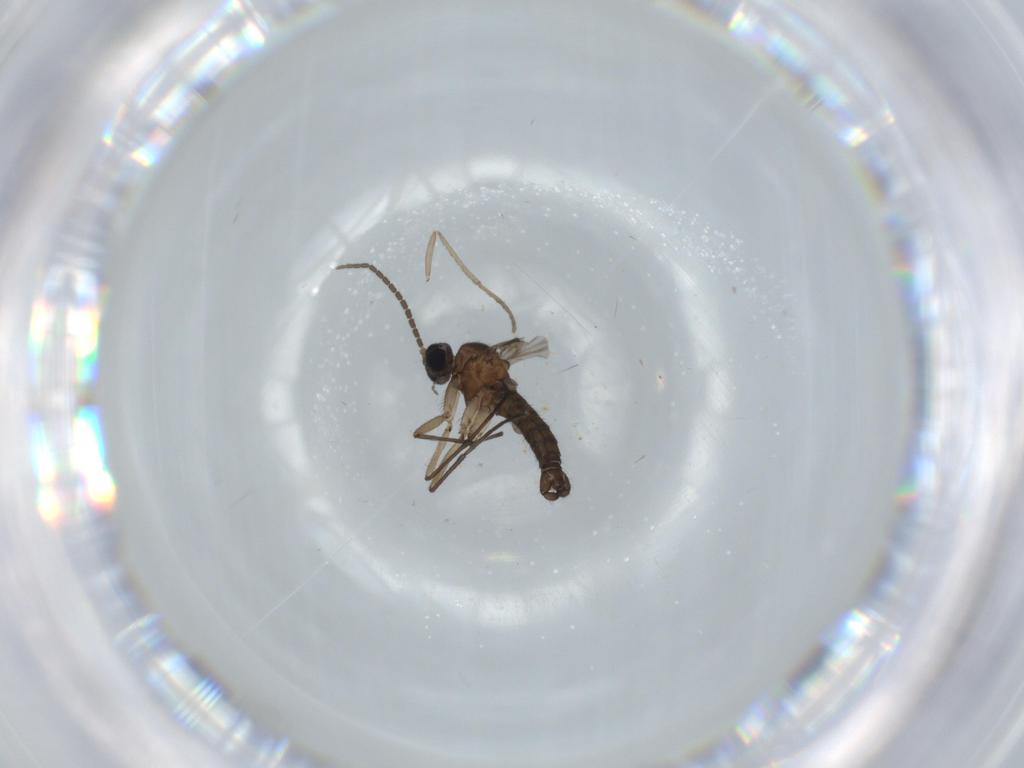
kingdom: Animalia
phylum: Arthropoda
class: Insecta
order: Diptera
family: Sciaridae
